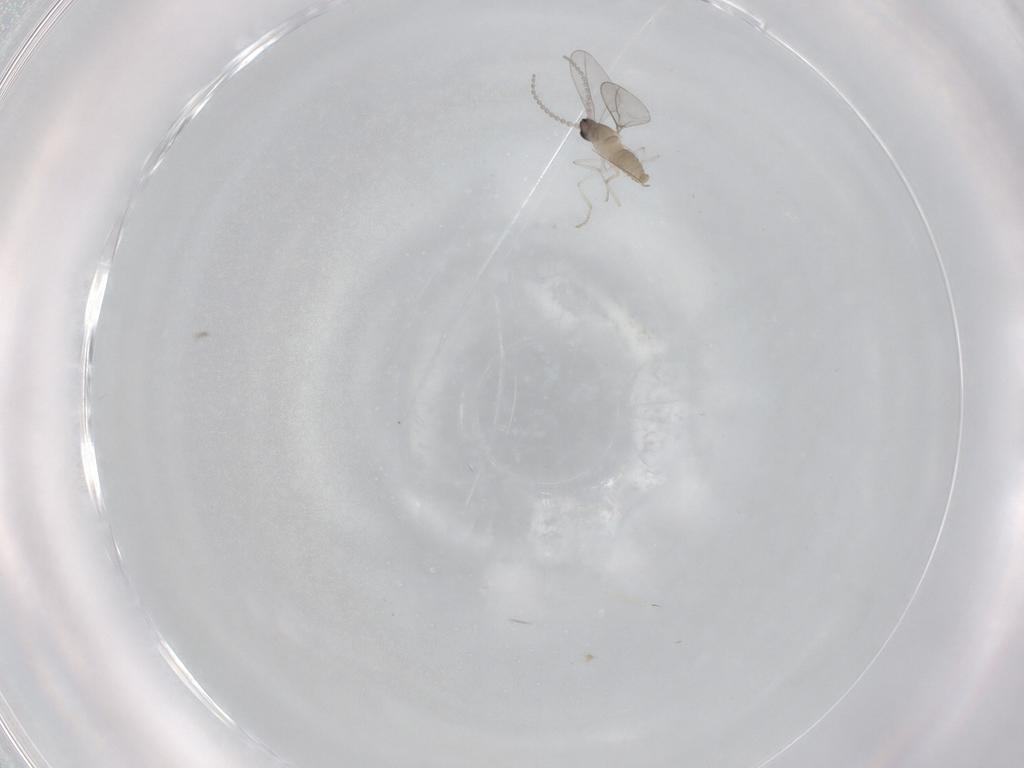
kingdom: Animalia
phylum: Arthropoda
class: Insecta
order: Diptera
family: Cecidomyiidae
